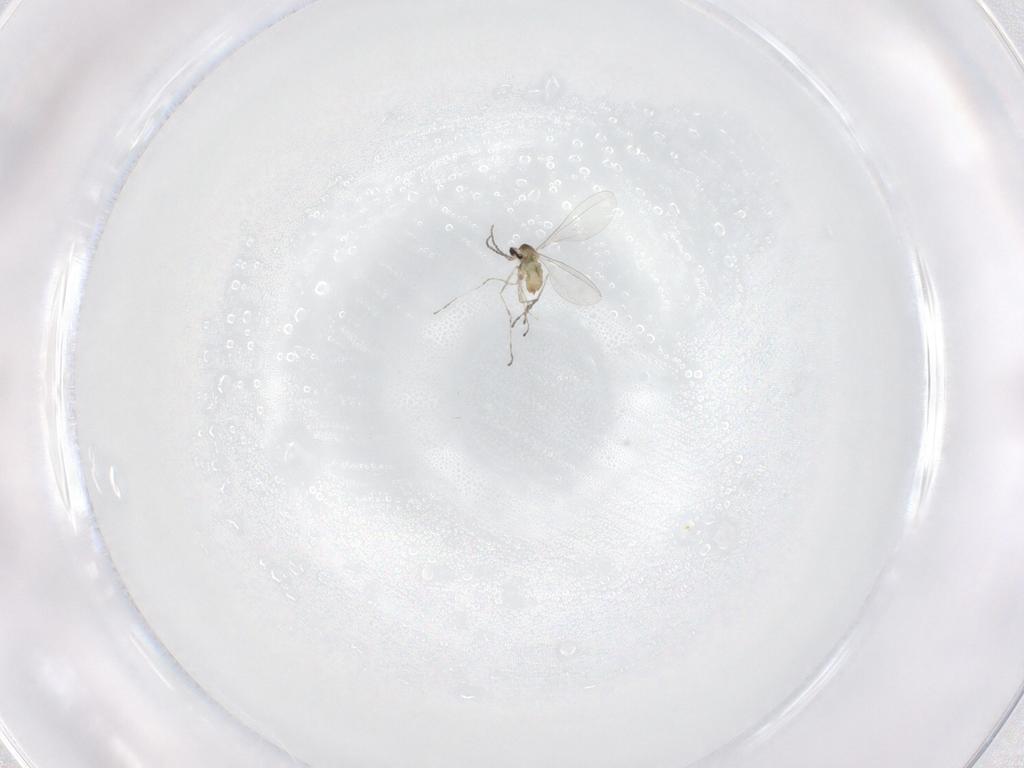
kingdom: Animalia
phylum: Arthropoda
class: Insecta
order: Diptera
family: Cecidomyiidae
